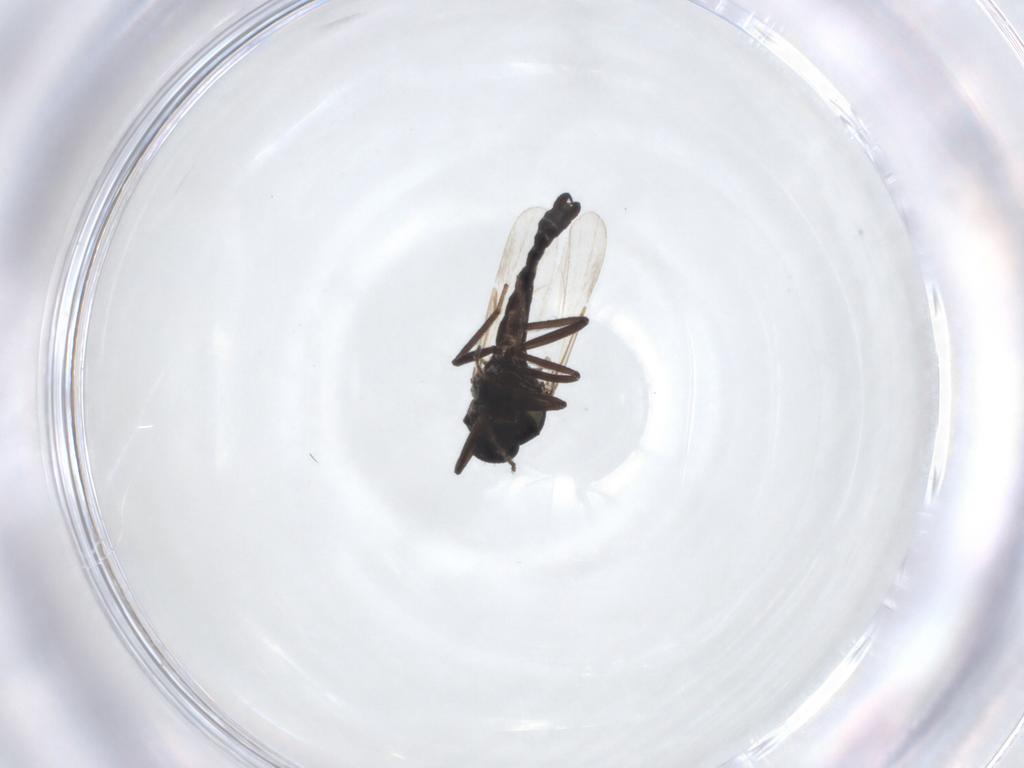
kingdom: Animalia
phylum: Arthropoda
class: Insecta
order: Diptera
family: Ceratopogonidae
